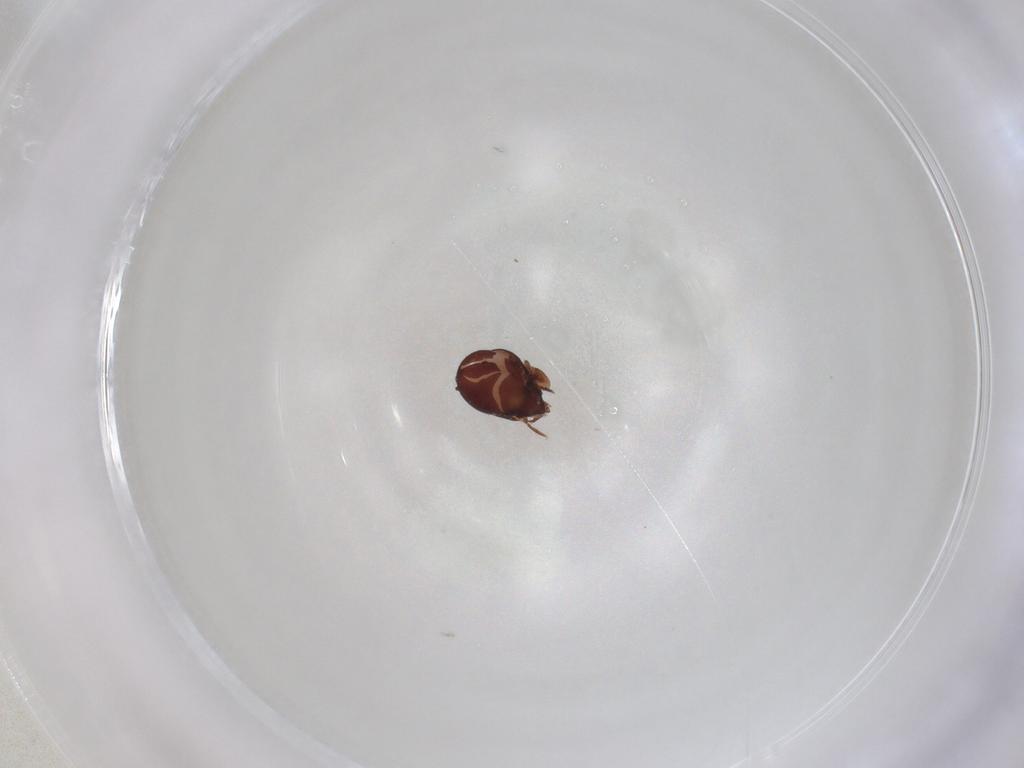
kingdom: Animalia
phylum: Arthropoda
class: Arachnida
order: Sarcoptiformes
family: Humerobatidae
